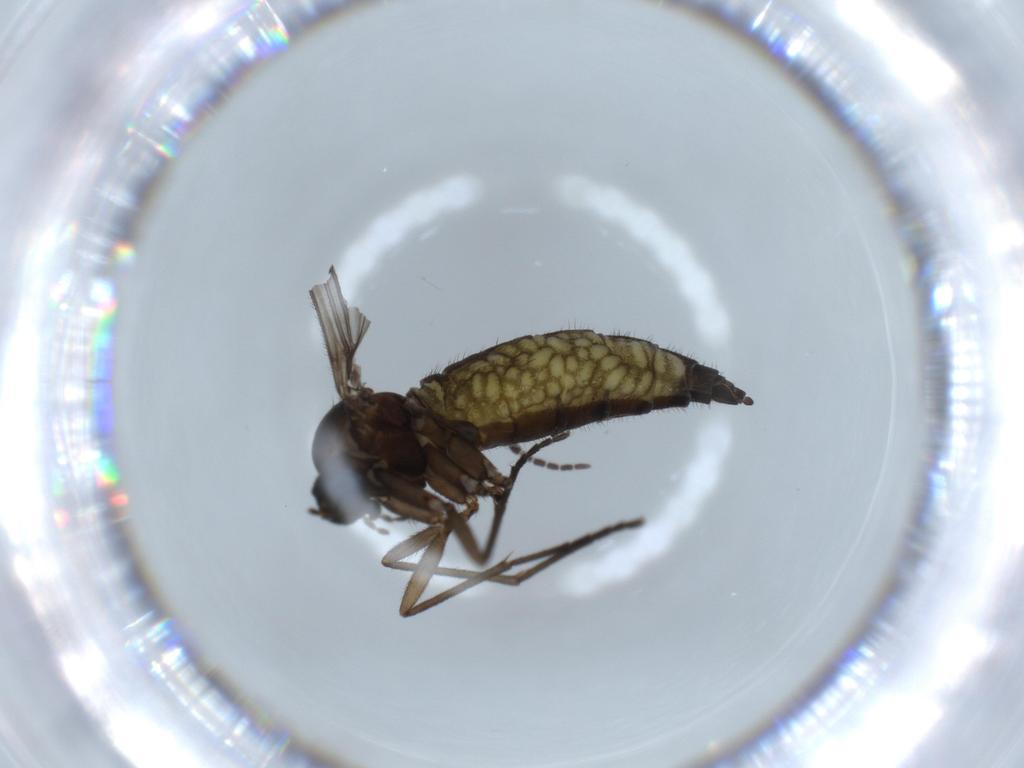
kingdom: Animalia
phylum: Arthropoda
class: Insecta
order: Diptera
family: Sciaridae
